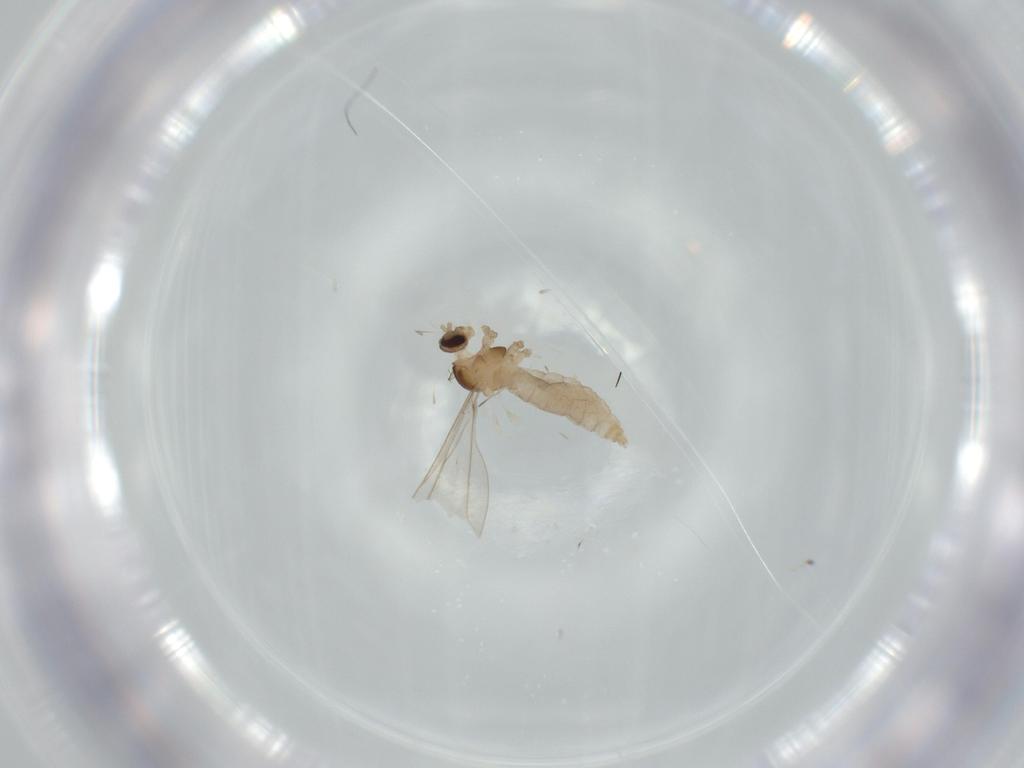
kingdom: Animalia
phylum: Arthropoda
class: Insecta
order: Diptera
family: Cecidomyiidae
